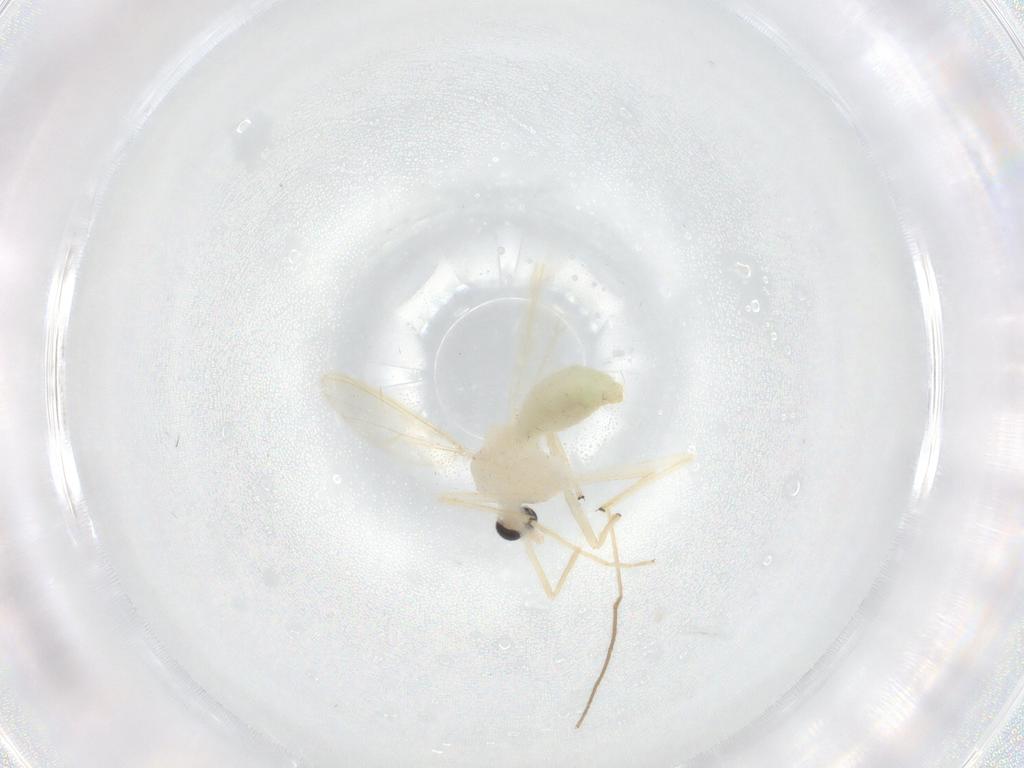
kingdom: Animalia
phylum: Arthropoda
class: Insecta
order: Diptera
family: Chironomidae
